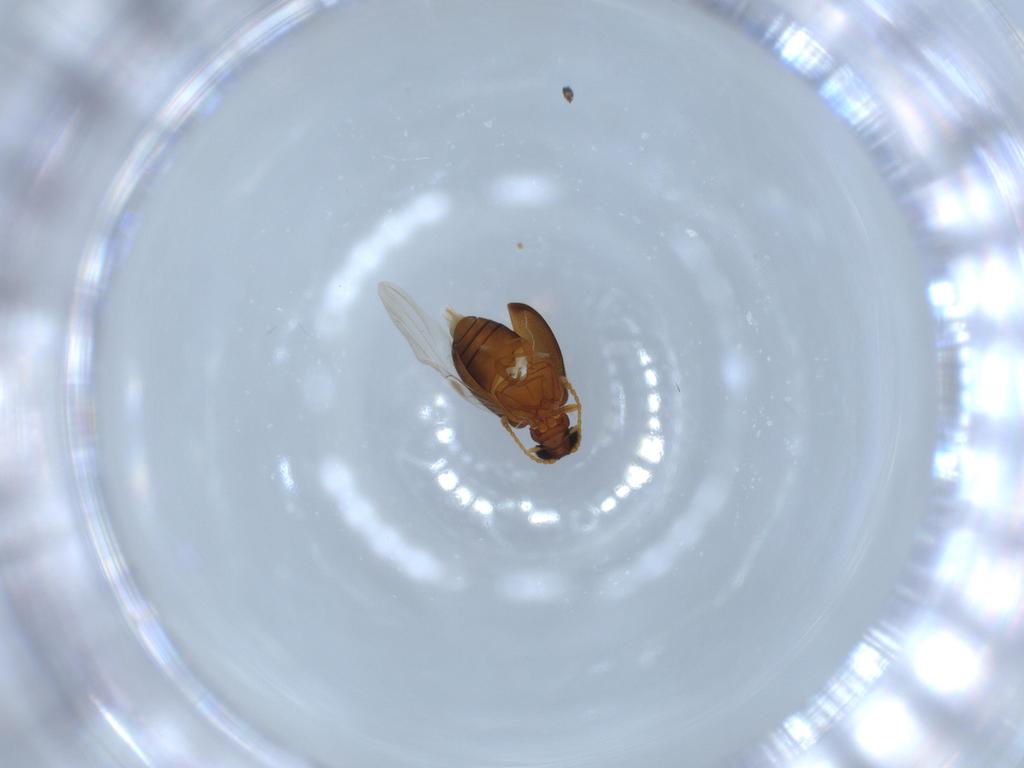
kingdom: Animalia
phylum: Arthropoda
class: Insecta
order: Coleoptera
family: Aderidae
